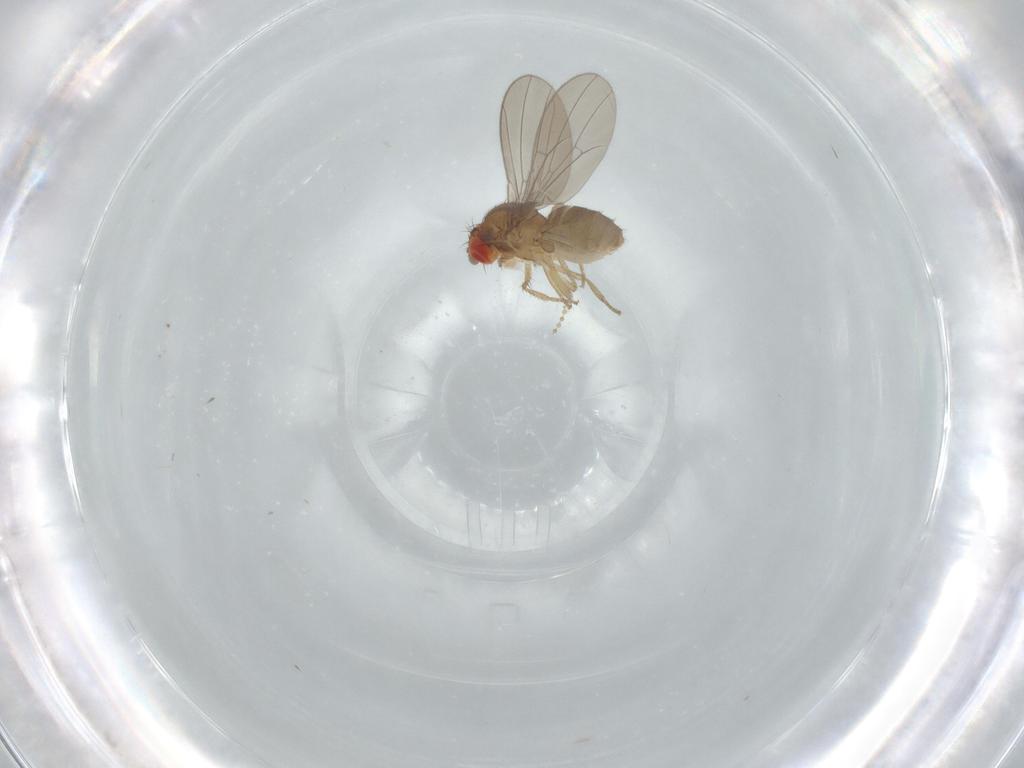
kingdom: Animalia
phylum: Arthropoda
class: Insecta
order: Diptera
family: Drosophilidae
